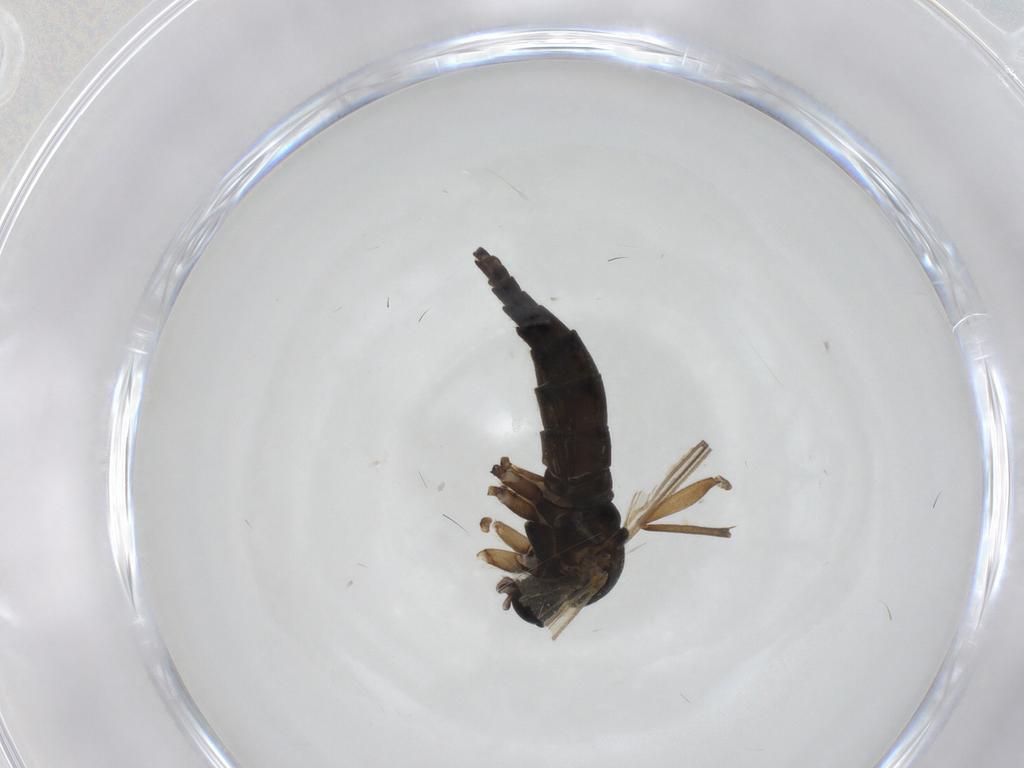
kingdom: Animalia
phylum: Arthropoda
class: Insecta
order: Diptera
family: Sciaridae
